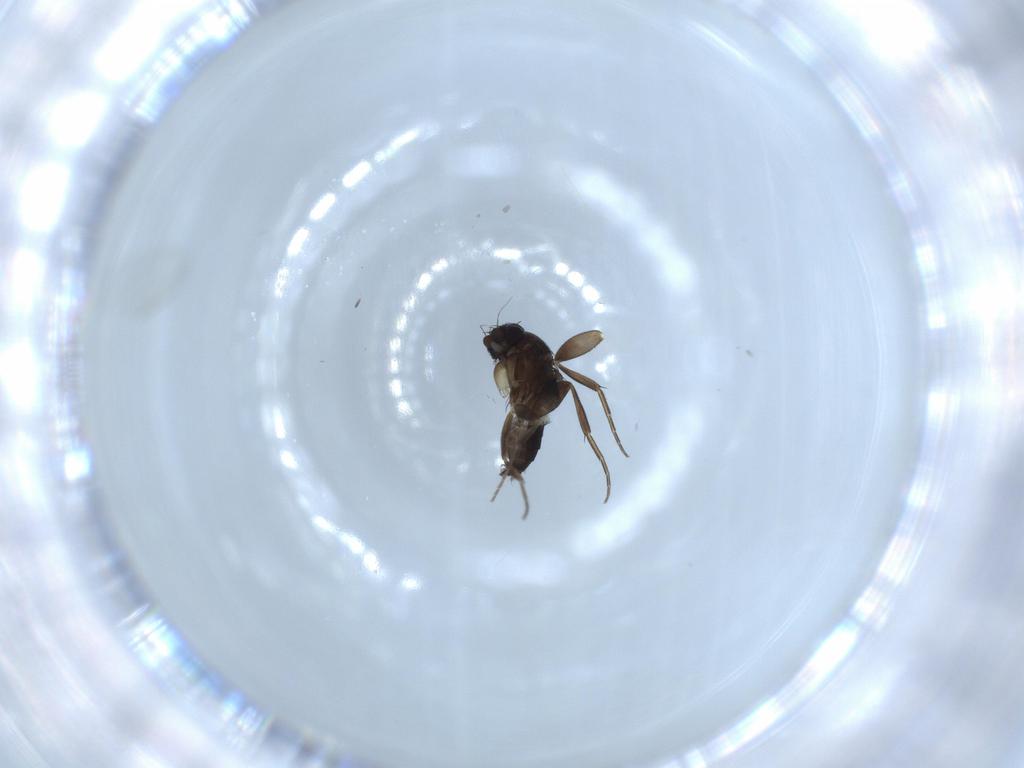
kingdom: Animalia
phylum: Arthropoda
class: Insecta
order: Diptera
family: Phoridae
